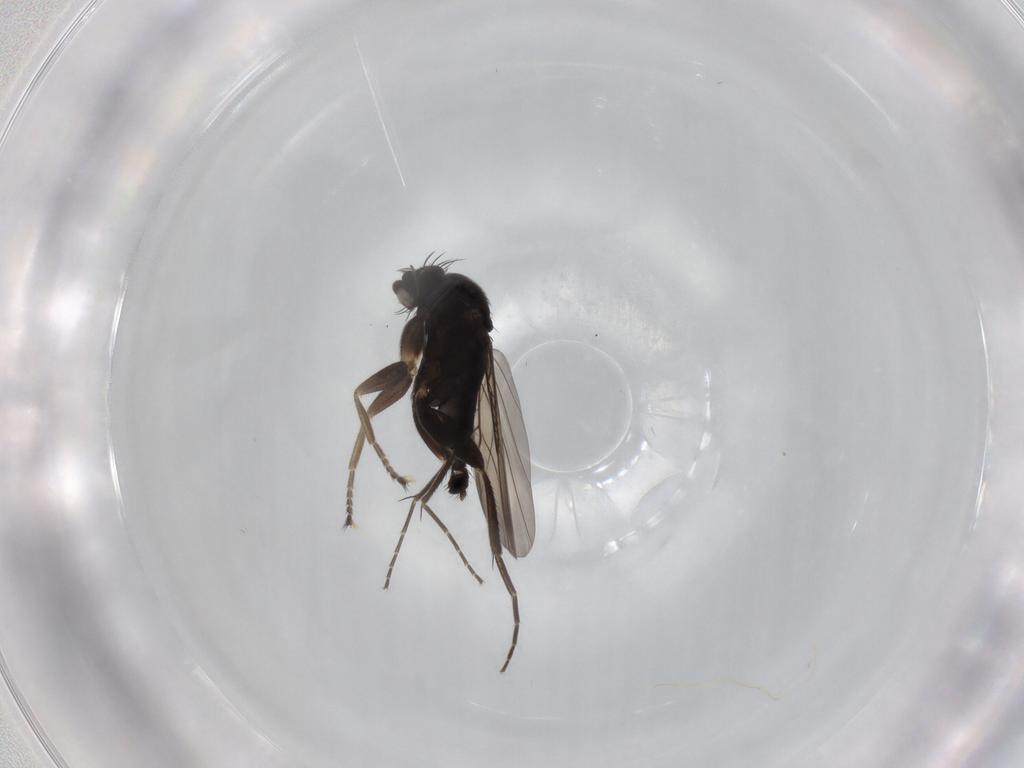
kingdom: Animalia
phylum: Arthropoda
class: Insecta
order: Diptera
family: Phoridae
